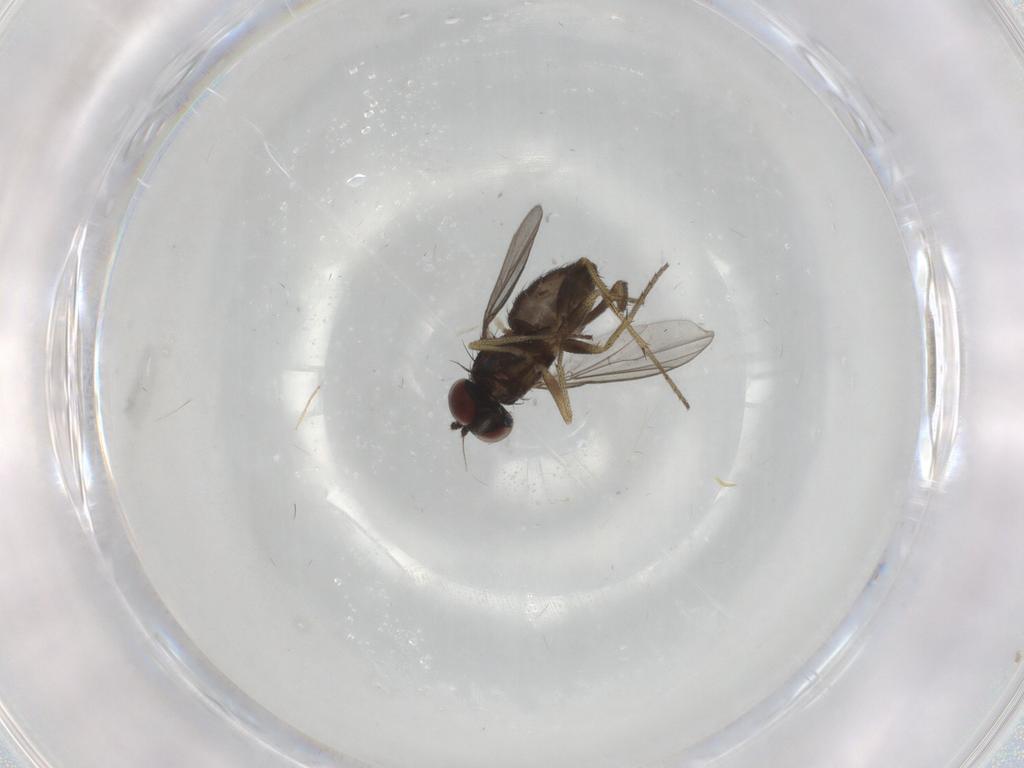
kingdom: Animalia
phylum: Arthropoda
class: Insecta
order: Diptera
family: Dolichopodidae
